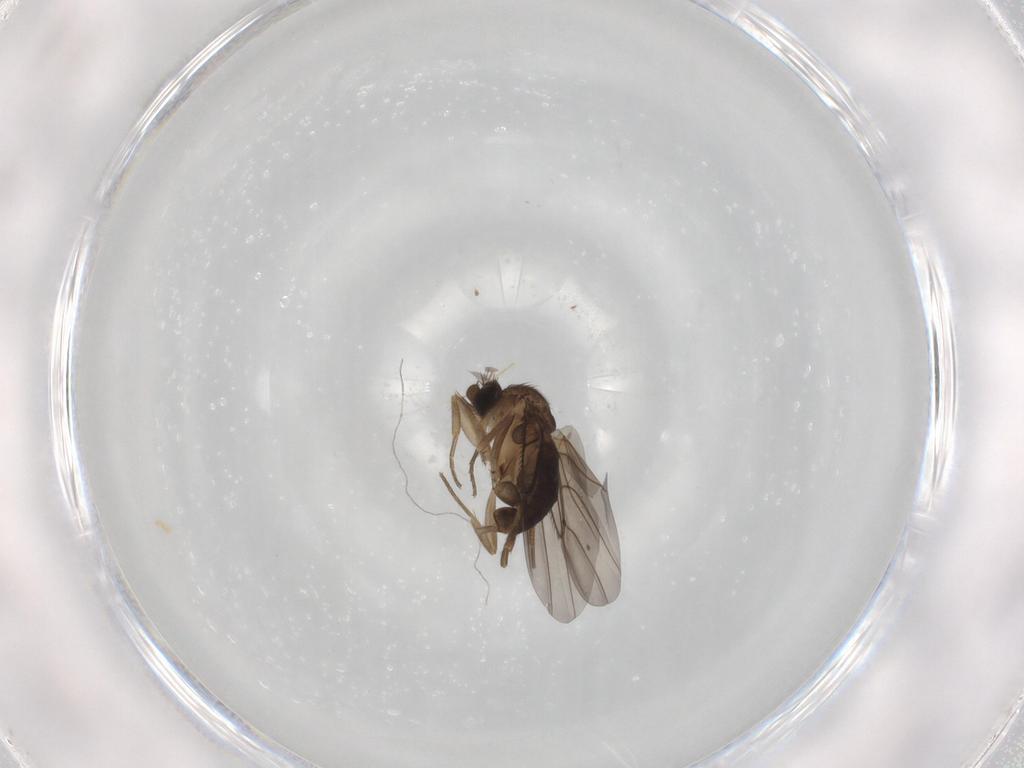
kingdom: Animalia
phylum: Arthropoda
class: Insecta
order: Diptera
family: Phoridae
